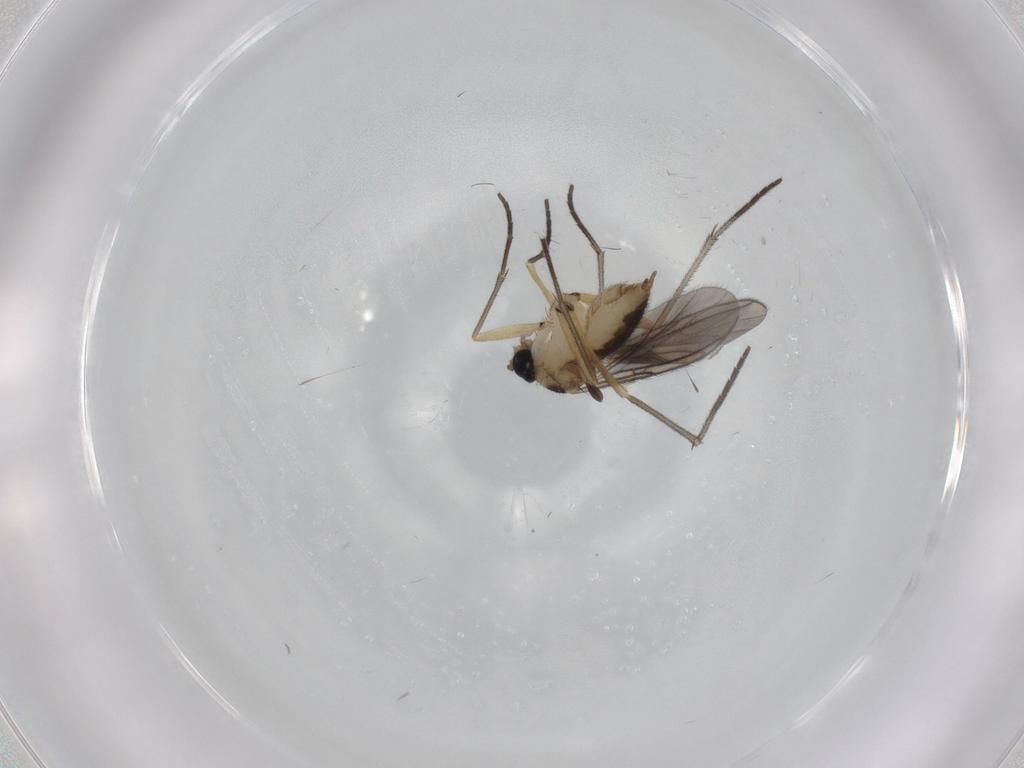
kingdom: Animalia
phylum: Arthropoda
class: Insecta
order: Diptera
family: Sciaridae
